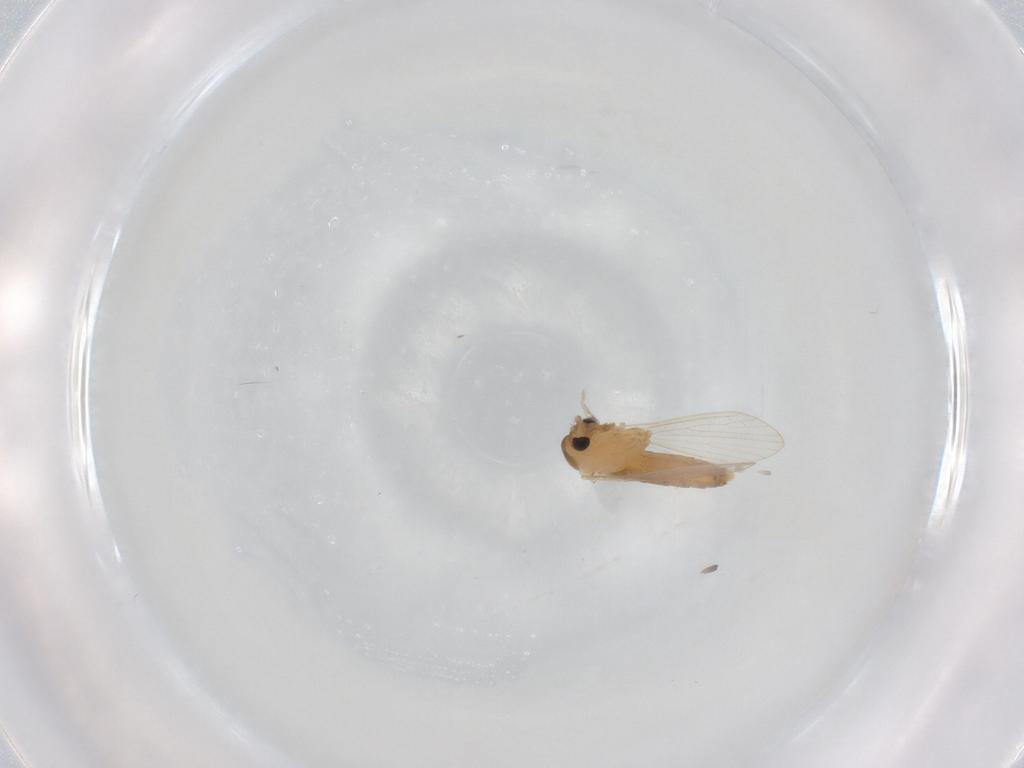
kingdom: Animalia
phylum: Arthropoda
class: Insecta
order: Diptera
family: Psychodidae
